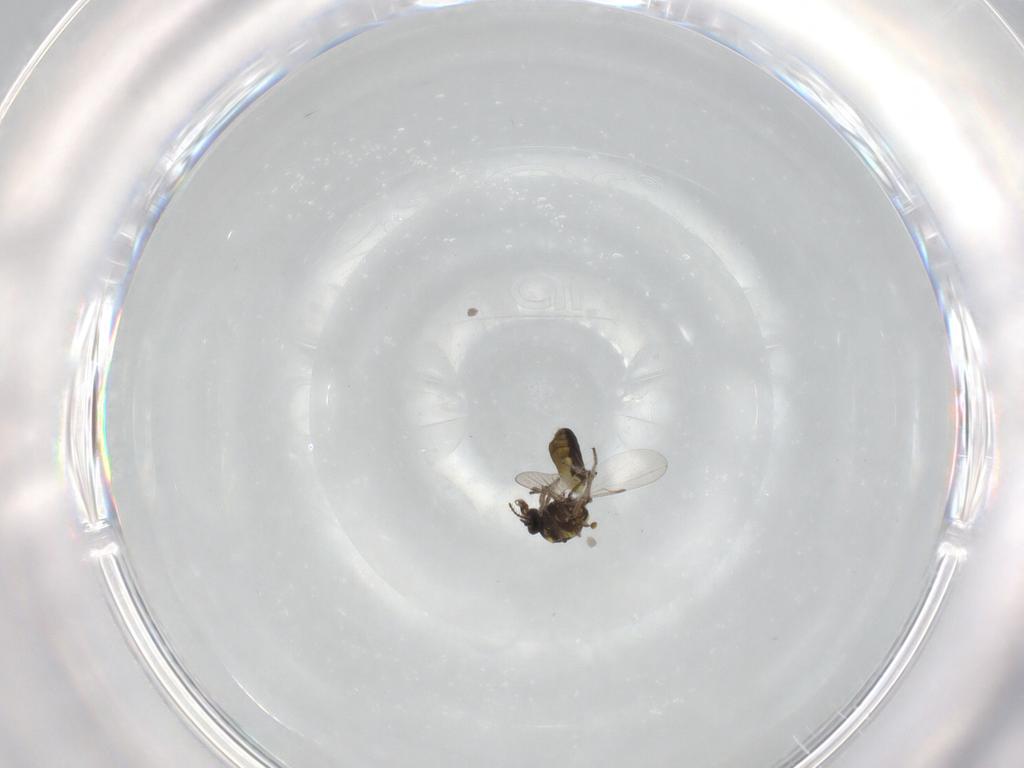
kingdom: Animalia
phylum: Arthropoda
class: Insecta
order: Diptera
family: Ceratopogonidae
